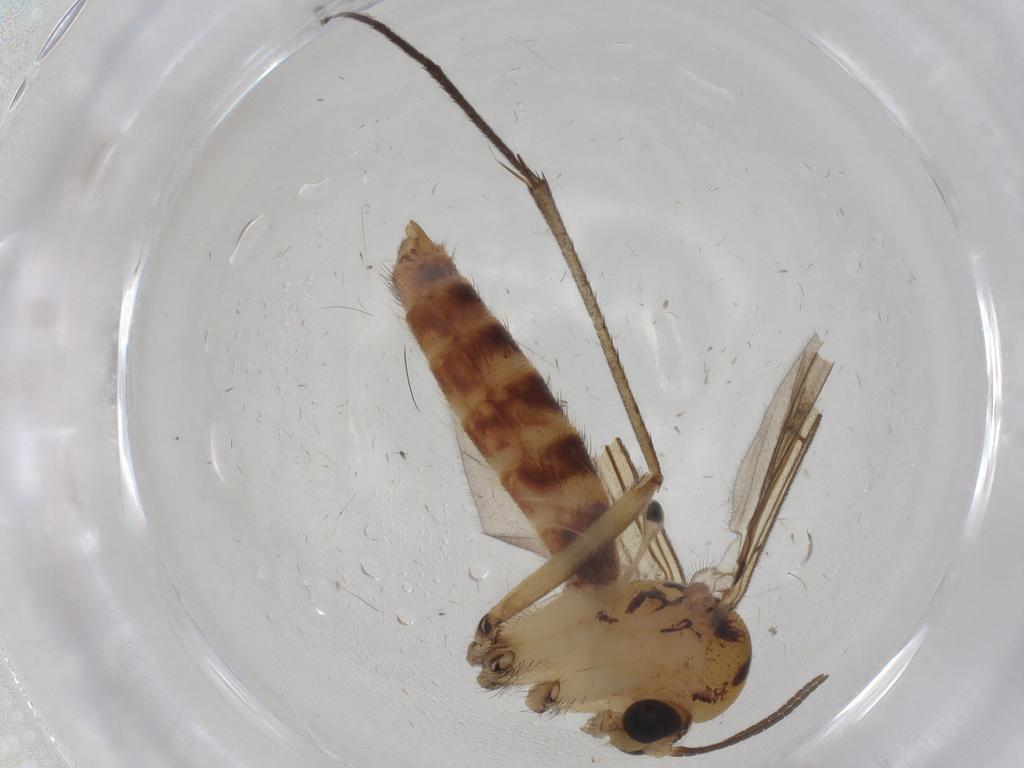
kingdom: Animalia
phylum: Arthropoda
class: Insecta
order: Diptera
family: Mycetophilidae
